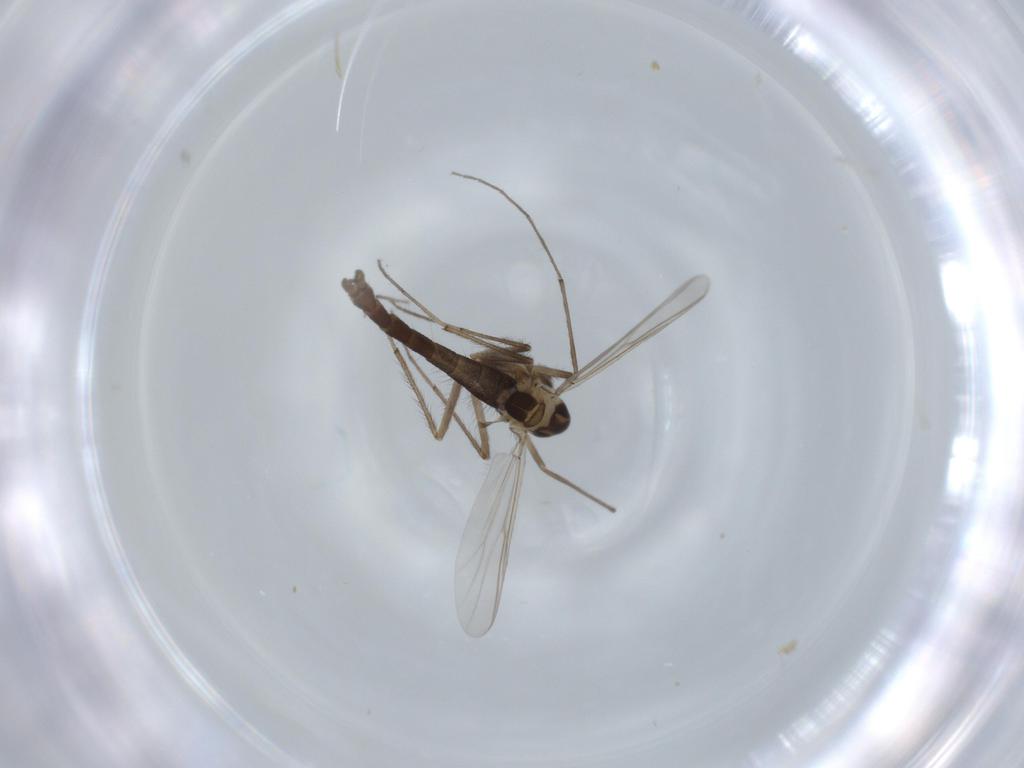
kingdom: Animalia
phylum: Arthropoda
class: Insecta
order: Diptera
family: Chironomidae
